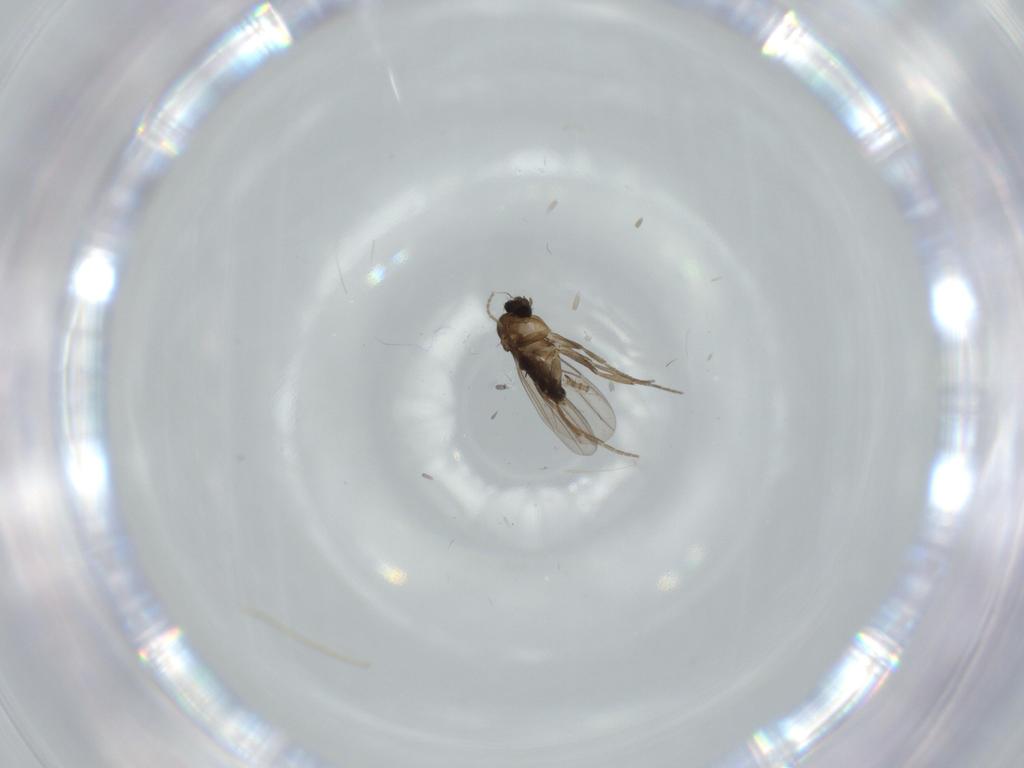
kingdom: Animalia
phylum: Arthropoda
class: Insecta
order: Diptera
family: Phoridae
